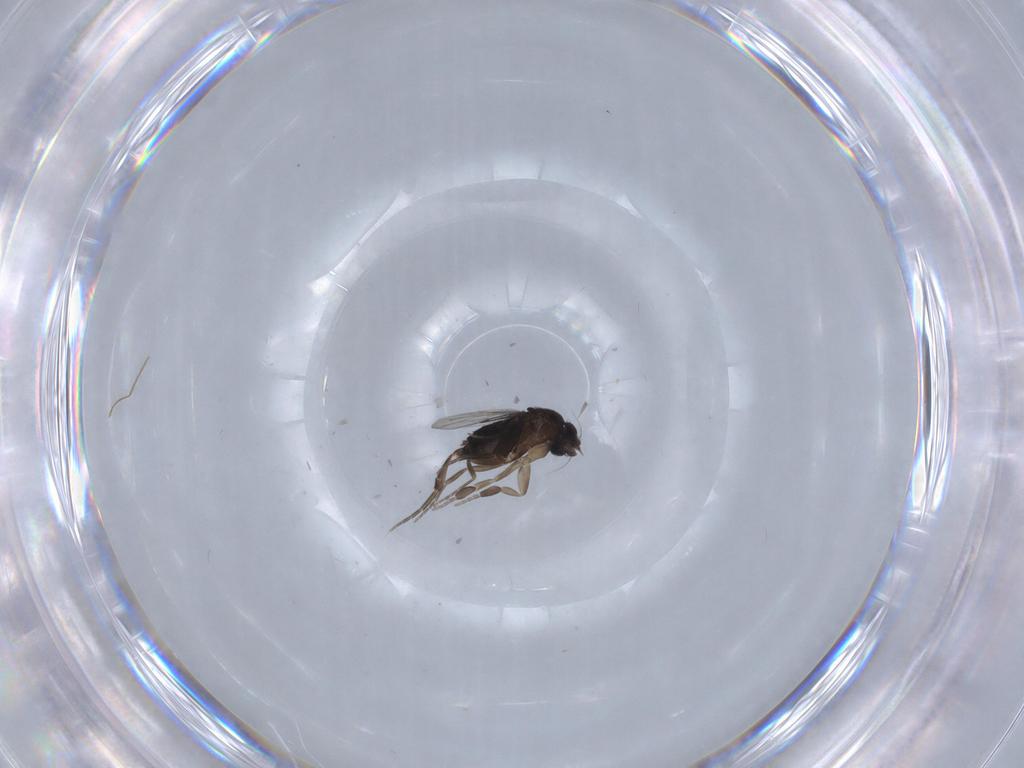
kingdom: Animalia
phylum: Arthropoda
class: Insecta
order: Diptera
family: Phoridae
